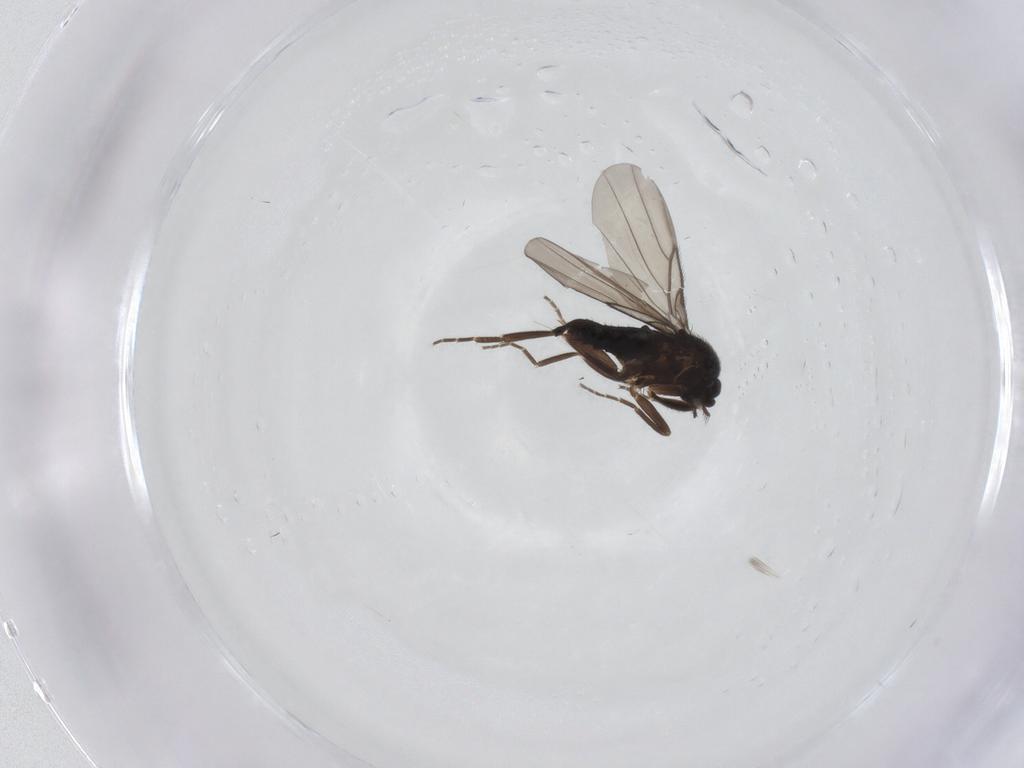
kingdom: Animalia
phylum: Arthropoda
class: Insecta
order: Diptera
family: Phoridae
